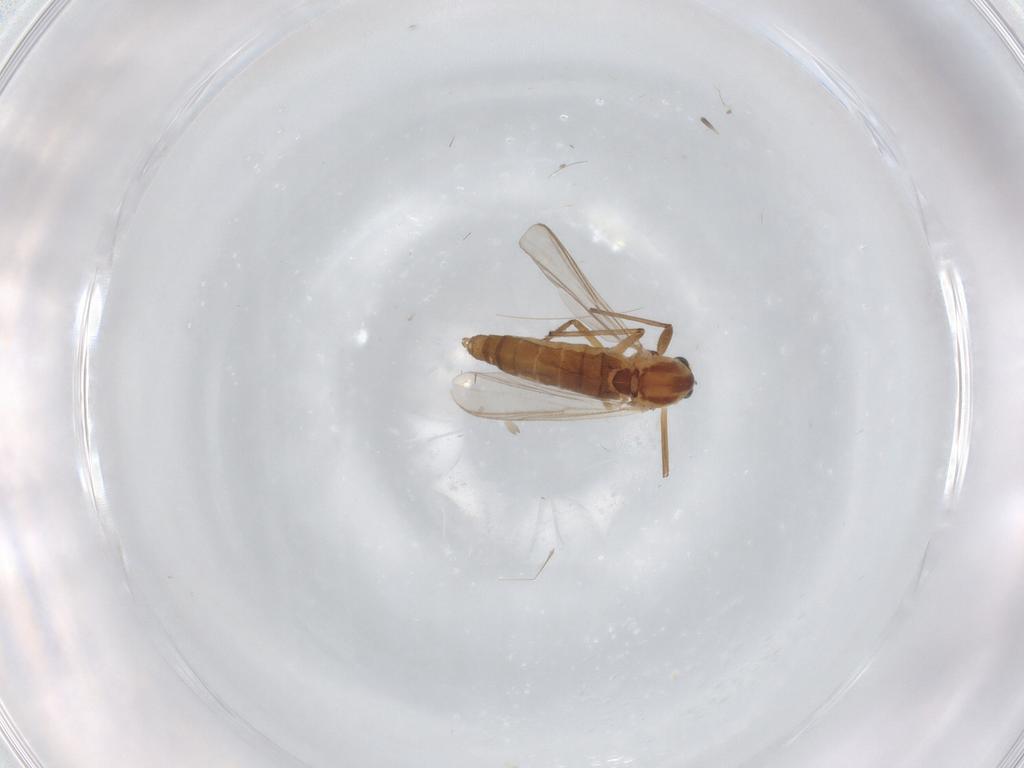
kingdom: Animalia
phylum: Arthropoda
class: Insecta
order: Diptera
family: Chironomidae
